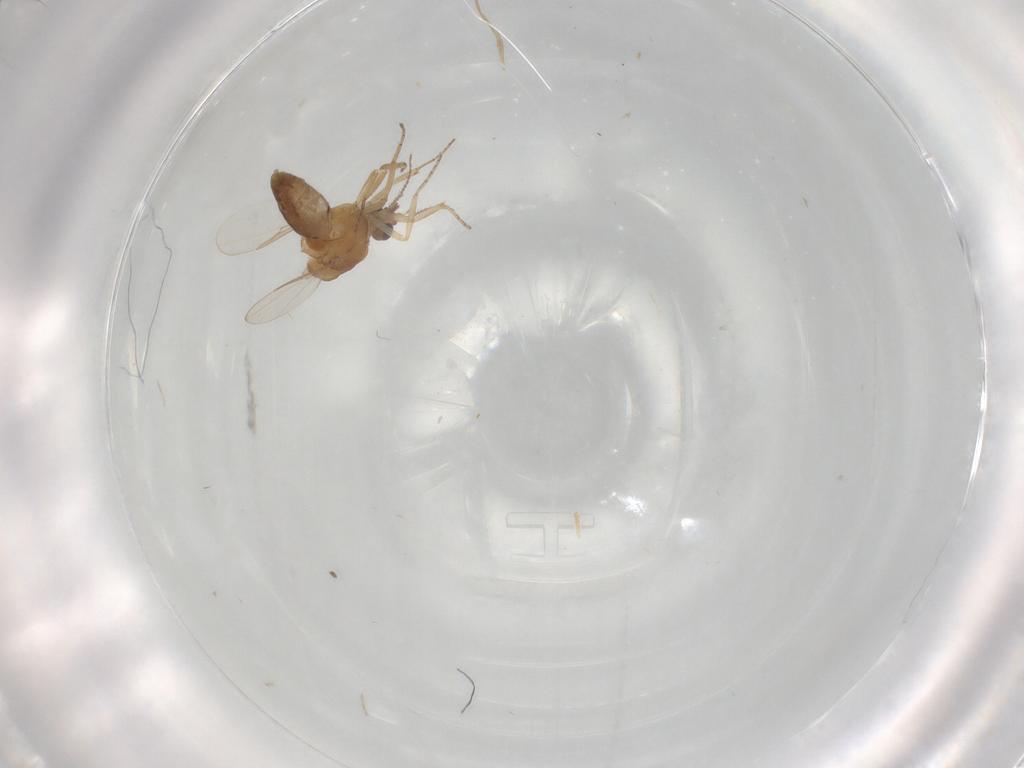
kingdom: Animalia
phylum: Arthropoda
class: Insecta
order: Diptera
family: Ceratopogonidae
